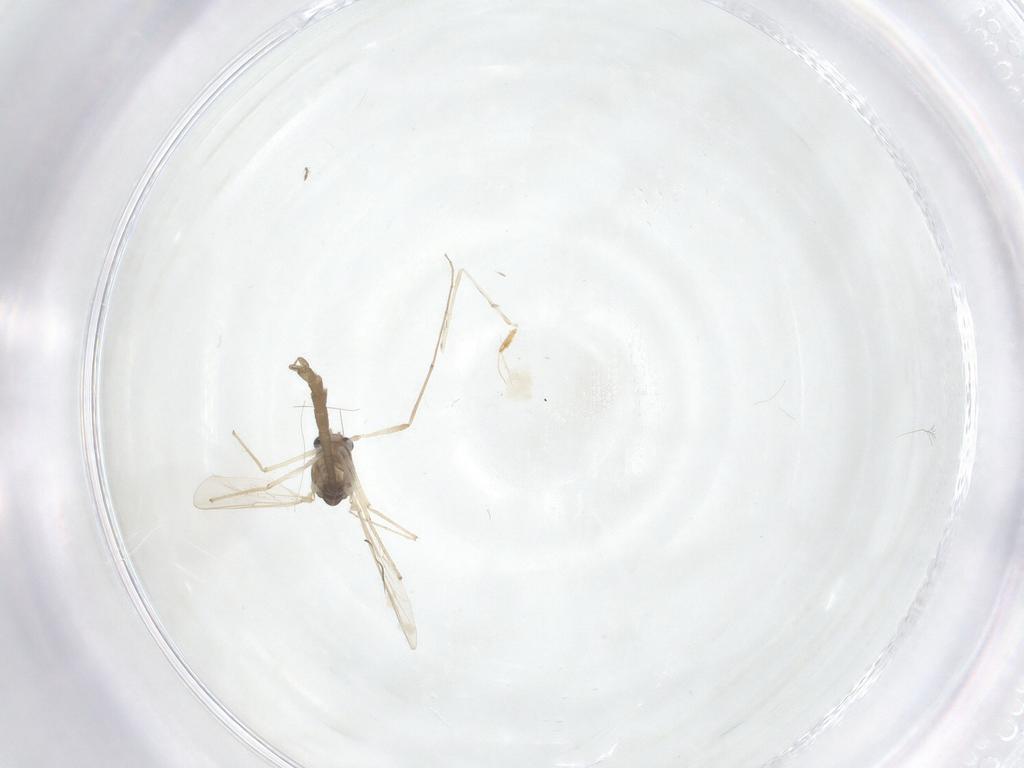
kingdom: Animalia
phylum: Arthropoda
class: Insecta
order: Diptera
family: Cecidomyiidae
